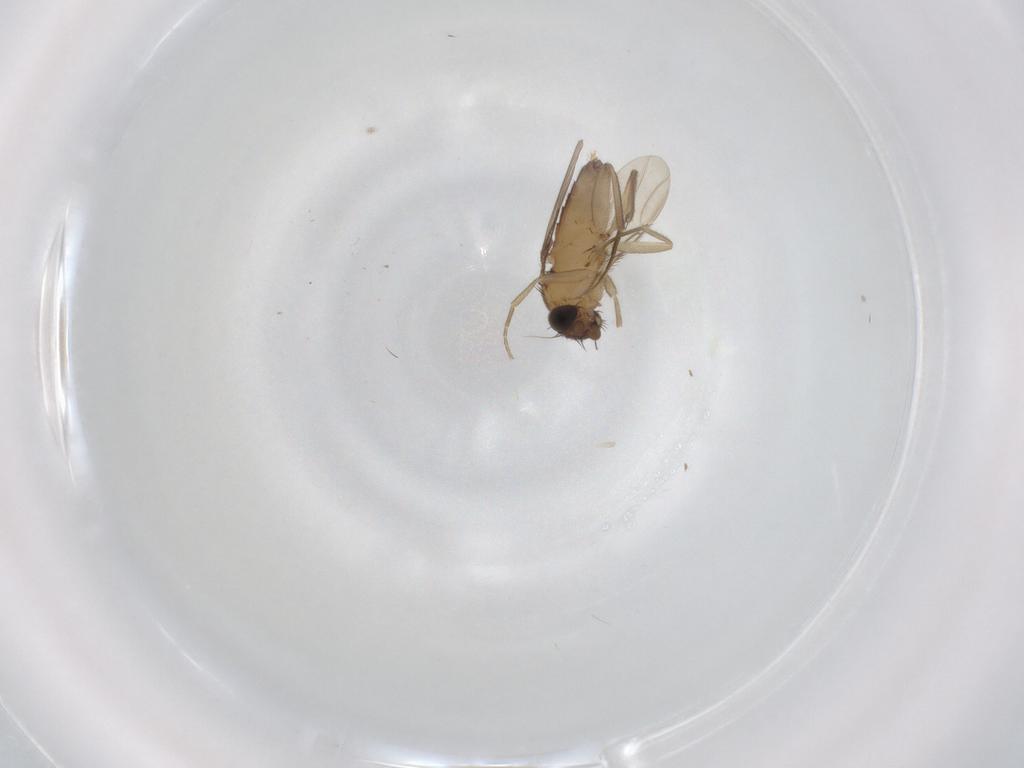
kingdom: Animalia
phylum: Arthropoda
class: Insecta
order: Diptera
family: Phoridae
